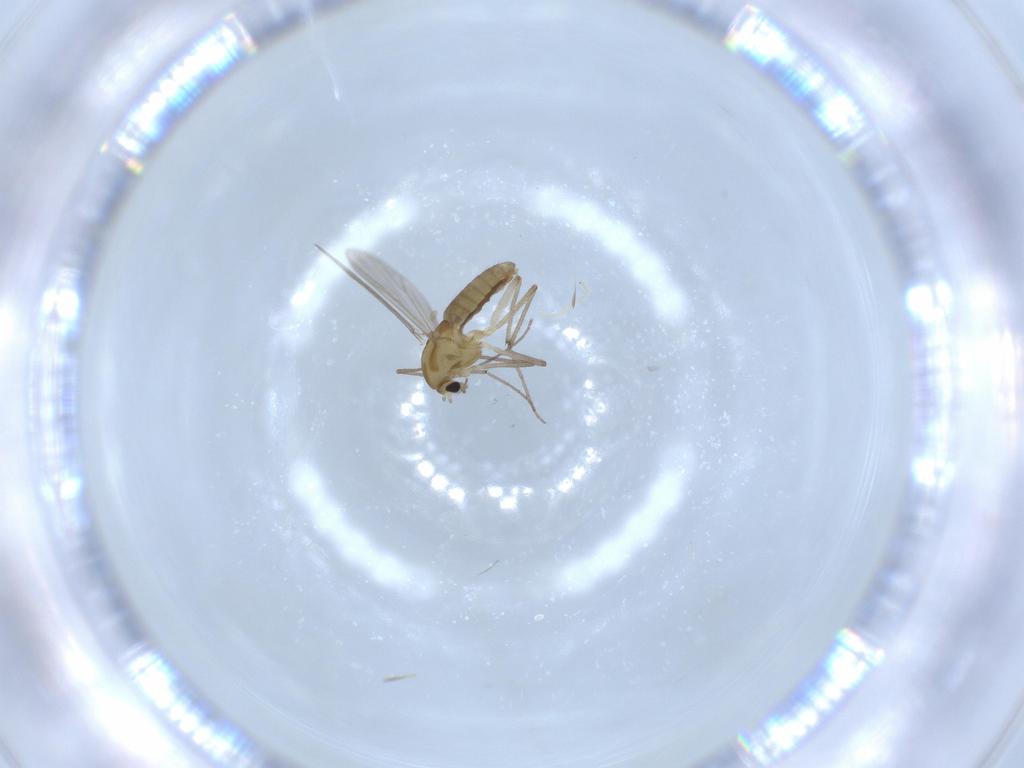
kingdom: Animalia
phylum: Arthropoda
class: Insecta
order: Diptera
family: Chironomidae
